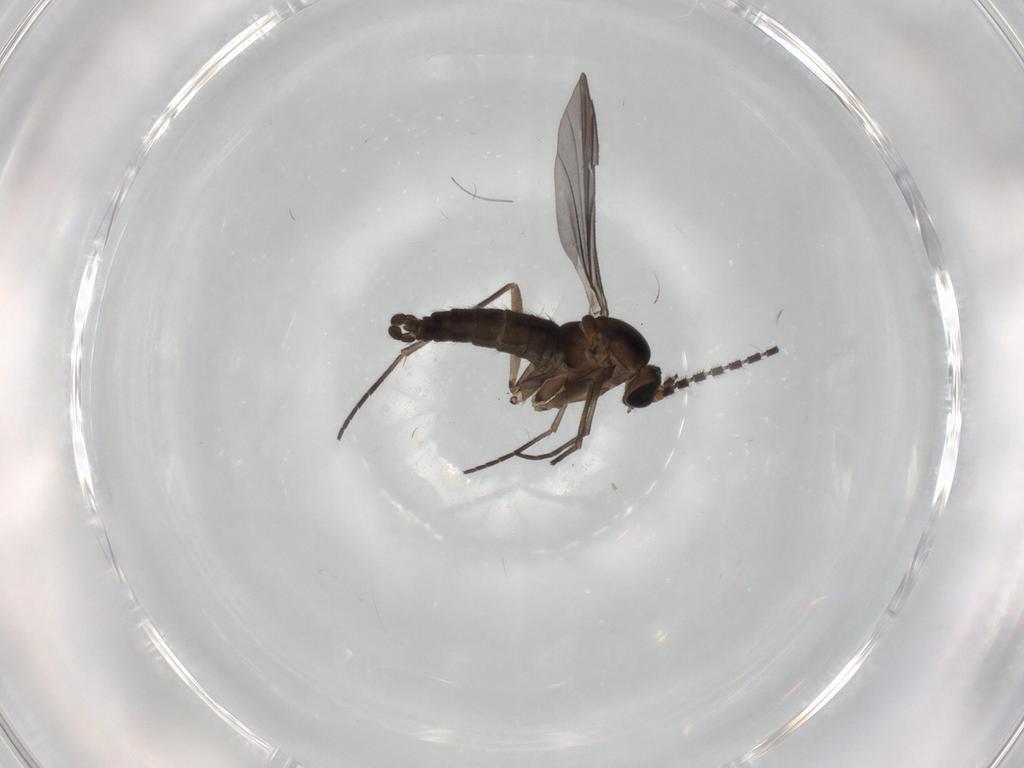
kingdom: Animalia
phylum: Arthropoda
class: Insecta
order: Diptera
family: Sciaridae
